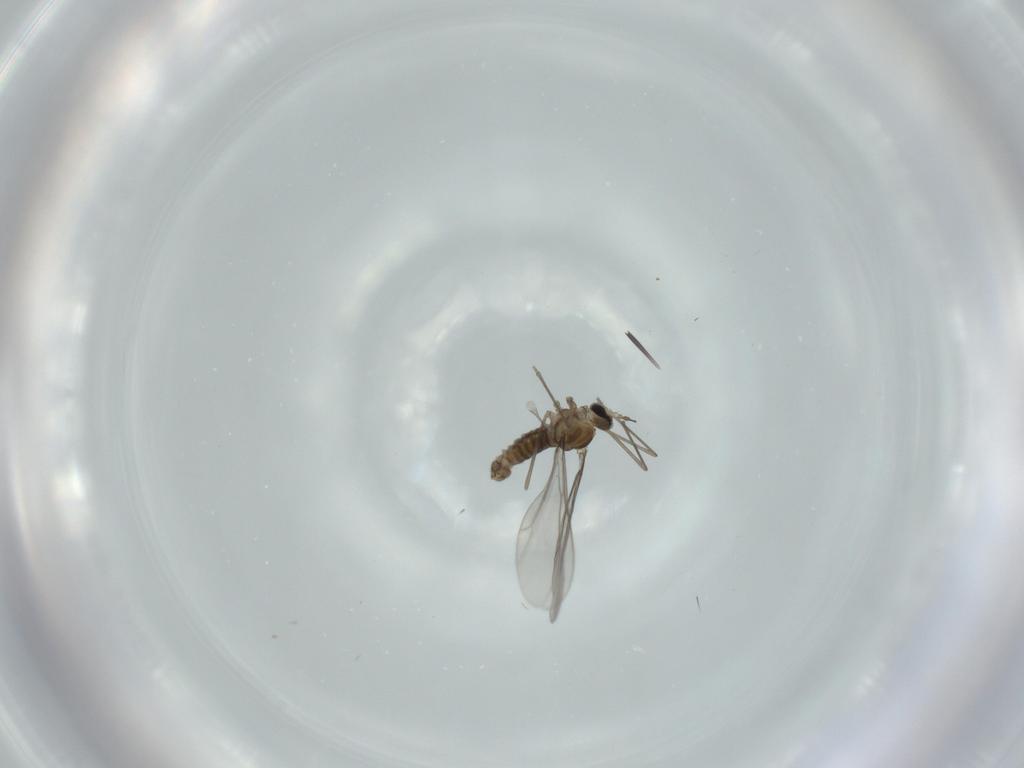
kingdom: Animalia
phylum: Arthropoda
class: Insecta
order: Diptera
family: Cecidomyiidae
